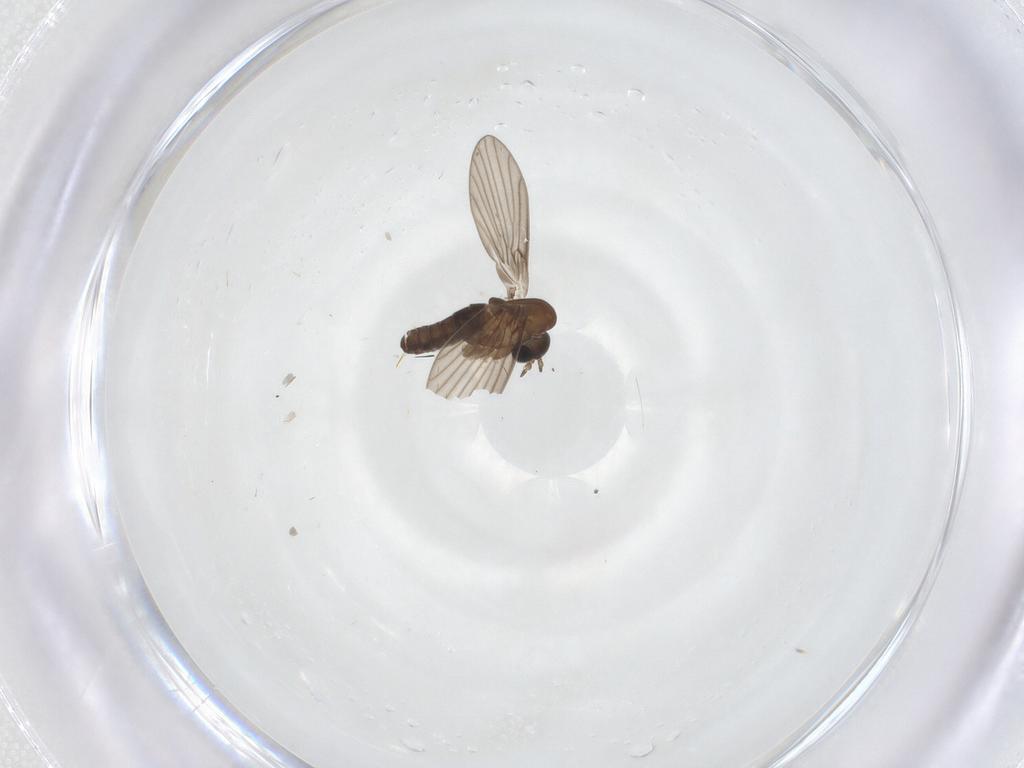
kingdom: Animalia
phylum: Arthropoda
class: Insecta
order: Diptera
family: Psychodidae
